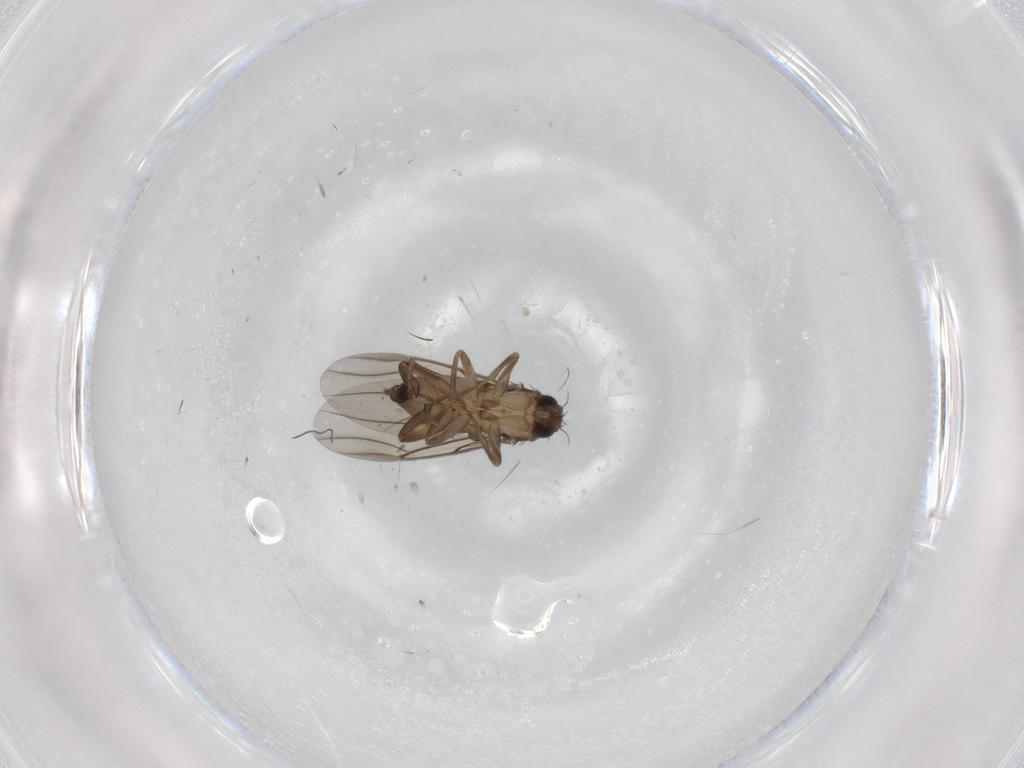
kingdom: Animalia
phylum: Arthropoda
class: Insecta
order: Diptera
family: Phoridae
